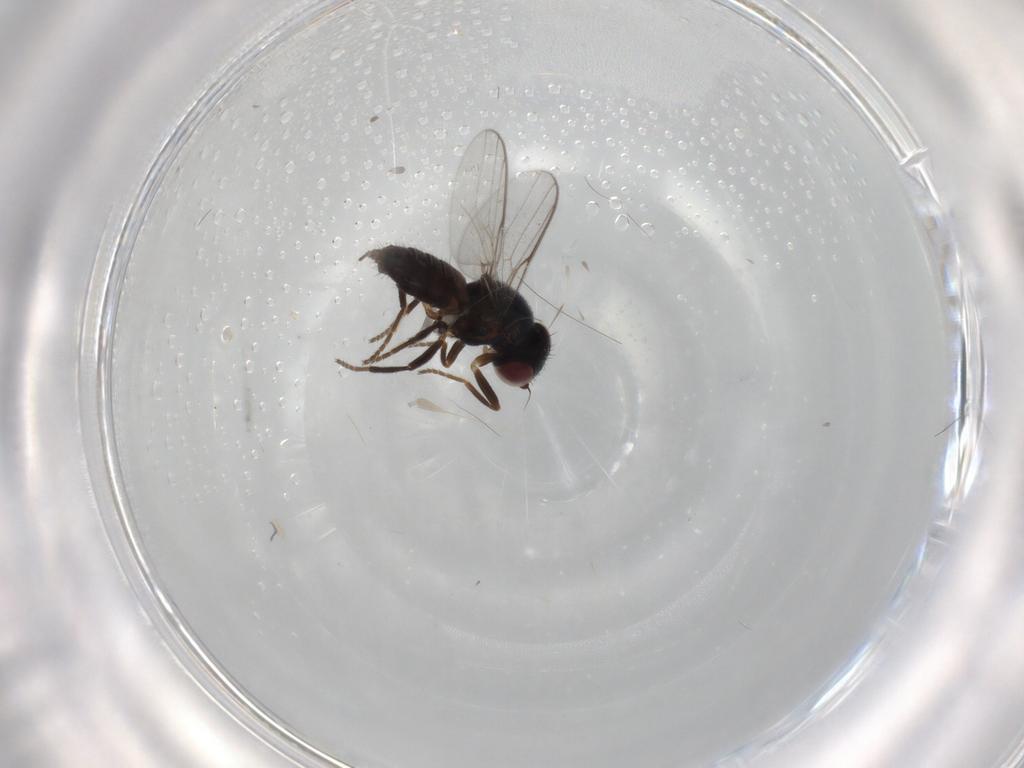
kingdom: Animalia
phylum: Arthropoda
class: Insecta
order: Diptera
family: Chloropidae
